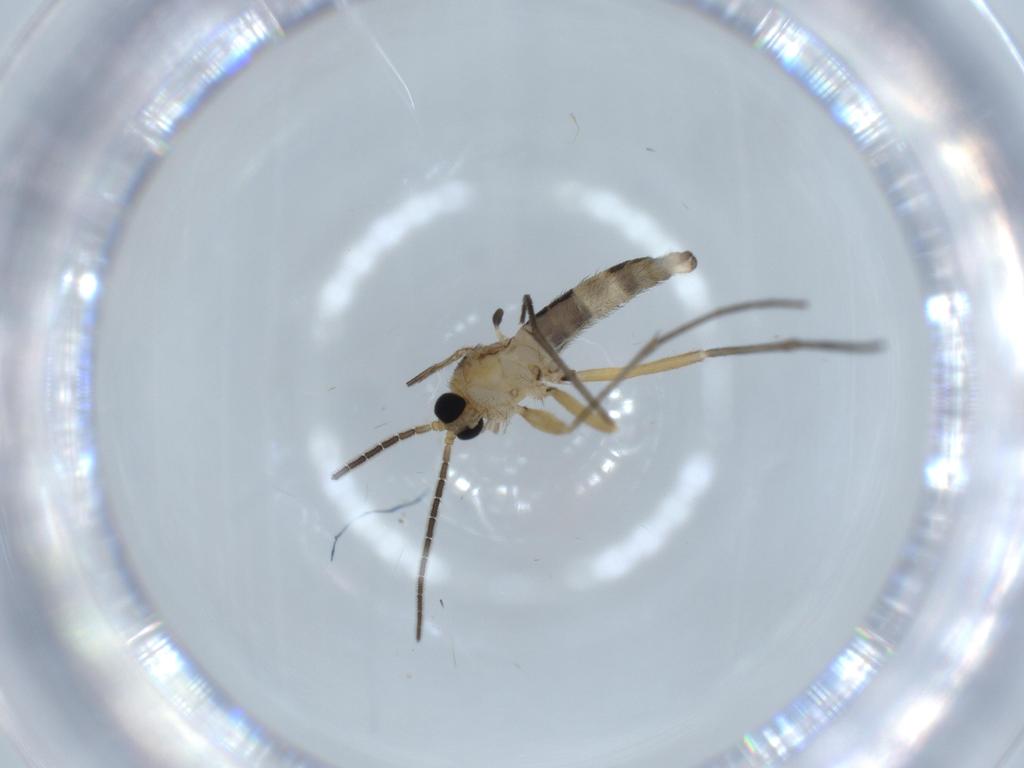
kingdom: Animalia
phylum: Arthropoda
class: Insecta
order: Diptera
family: Sciaridae
